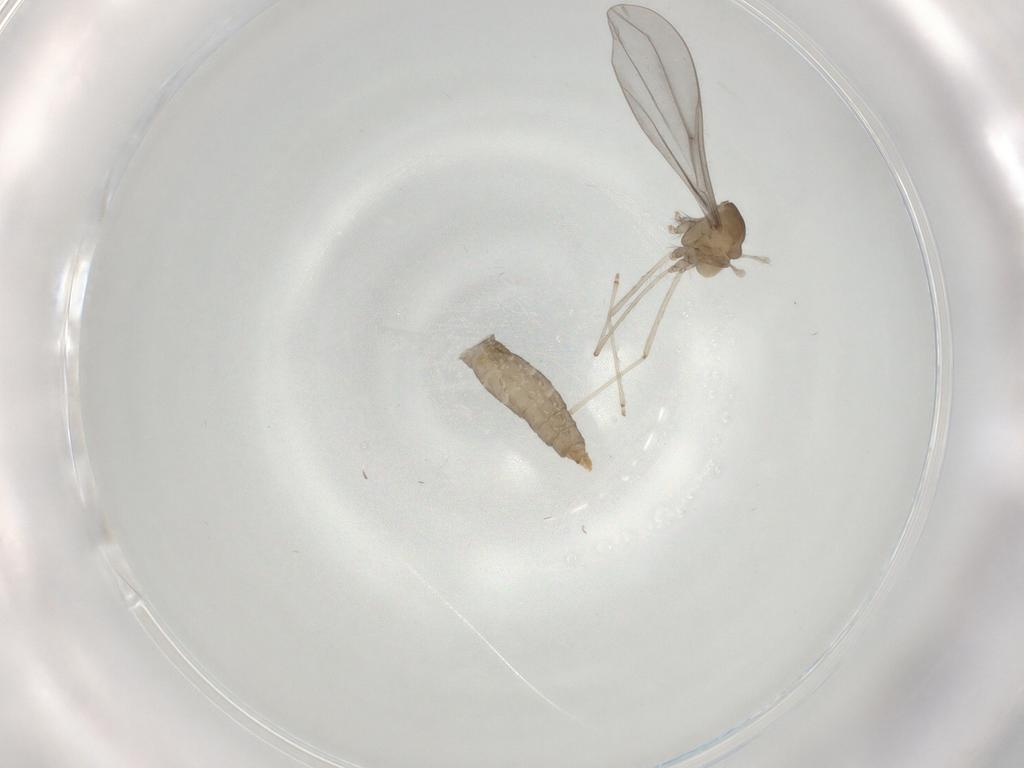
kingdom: Animalia
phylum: Arthropoda
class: Insecta
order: Diptera
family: Cecidomyiidae
